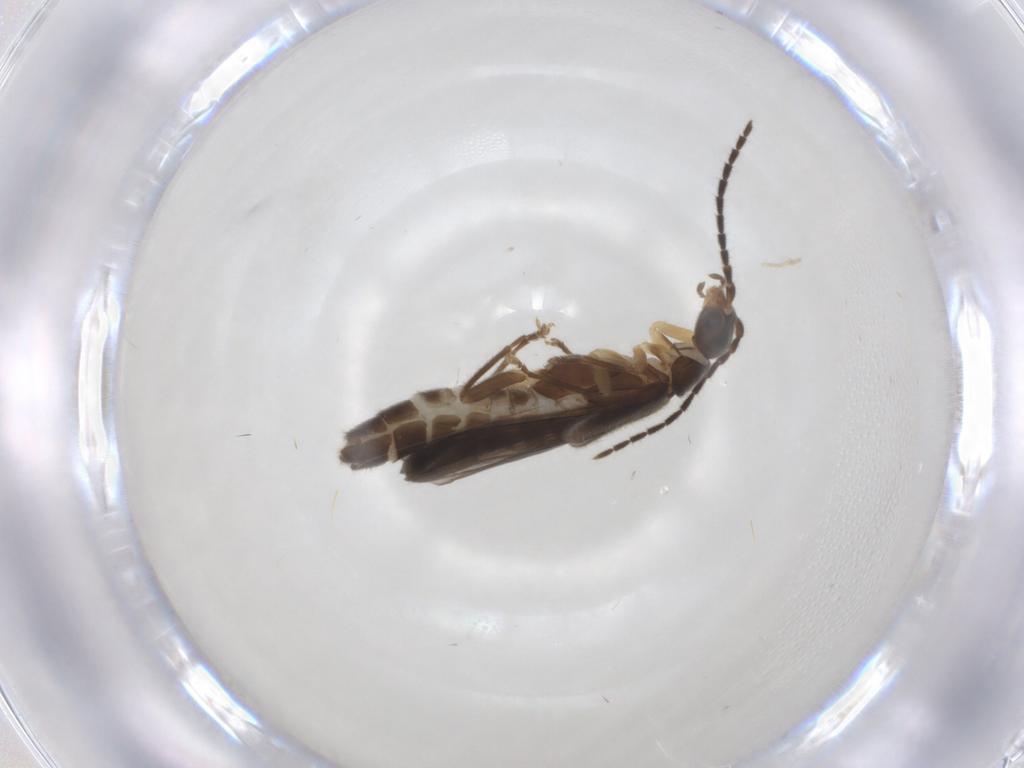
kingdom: Animalia
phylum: Arthropoda
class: Insecta
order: Coleoptera
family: Cantharidae
